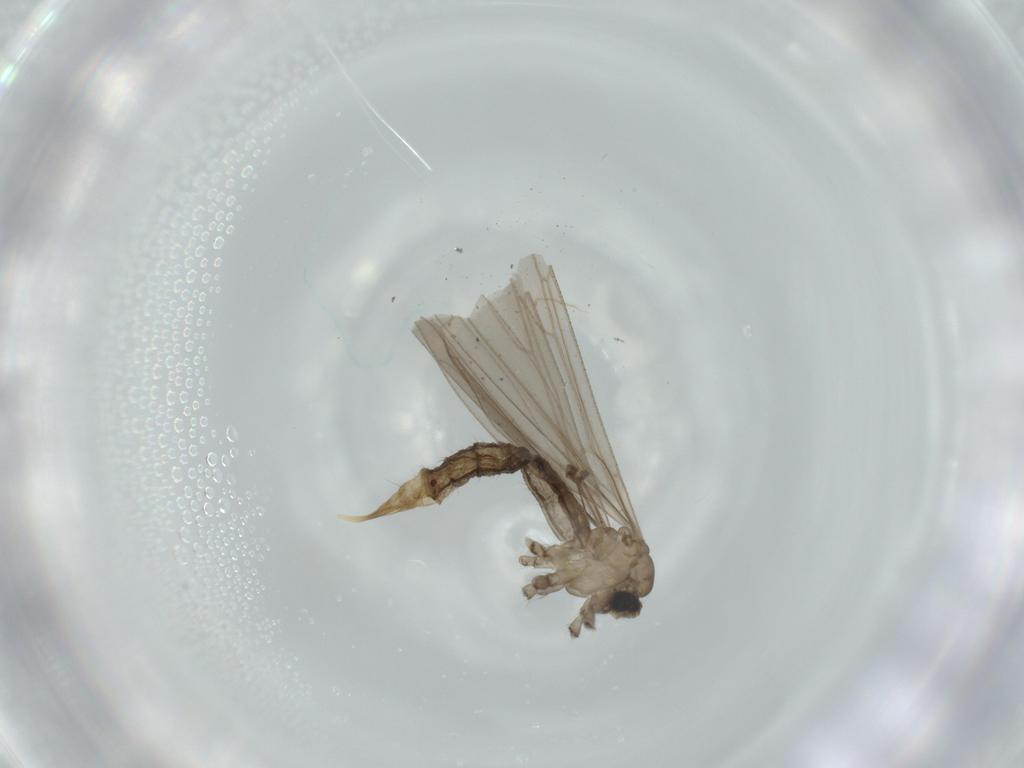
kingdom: Animalia
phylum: Arthropoda
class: Insecta
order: Diptera
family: Limoniidae
